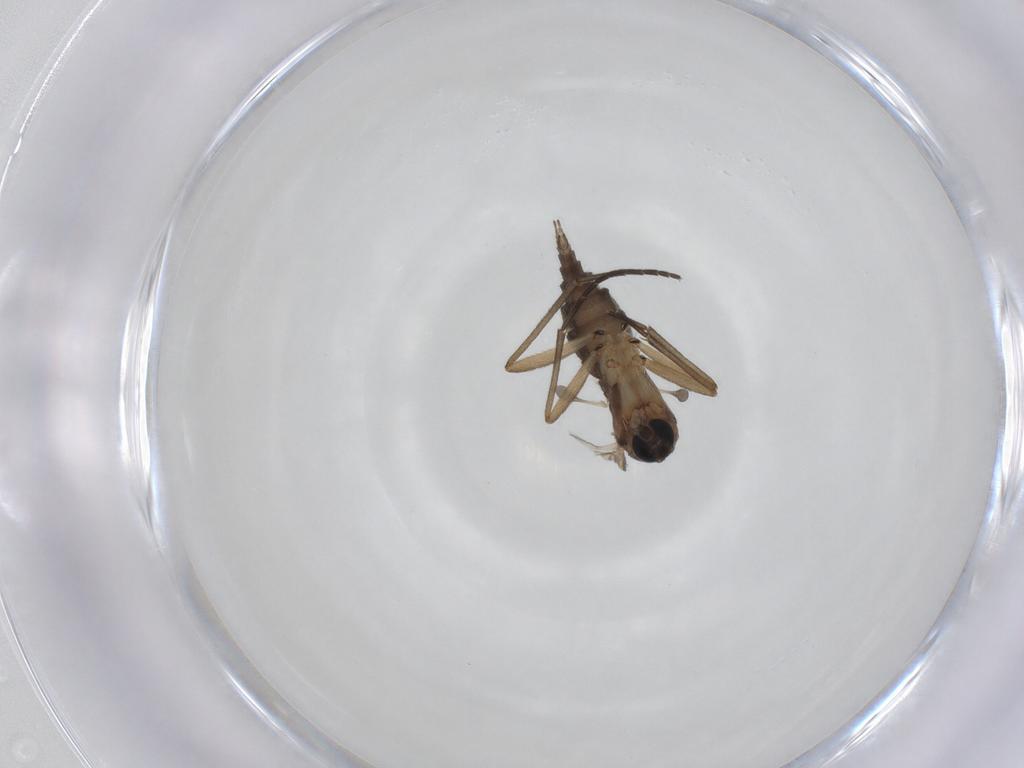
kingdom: Animalia
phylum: Arthropoda
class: Insecta
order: Diptera
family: Sciaridae
